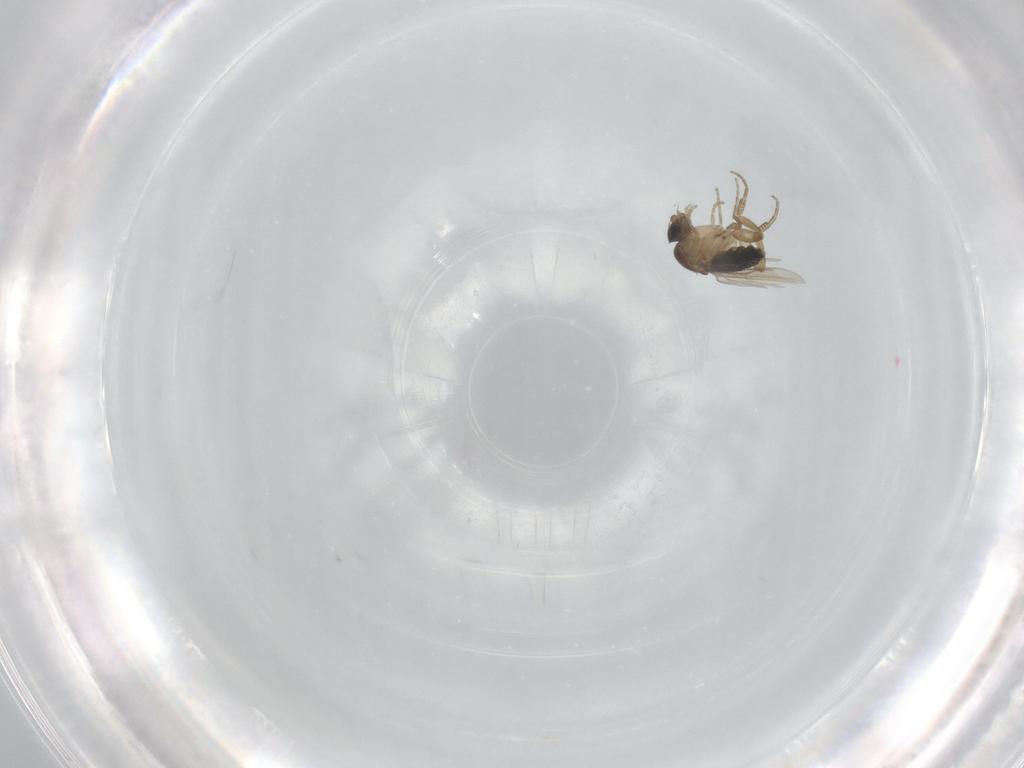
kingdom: Animalia
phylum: Arthropoda
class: Insecta
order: Diptera
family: Phoridae
